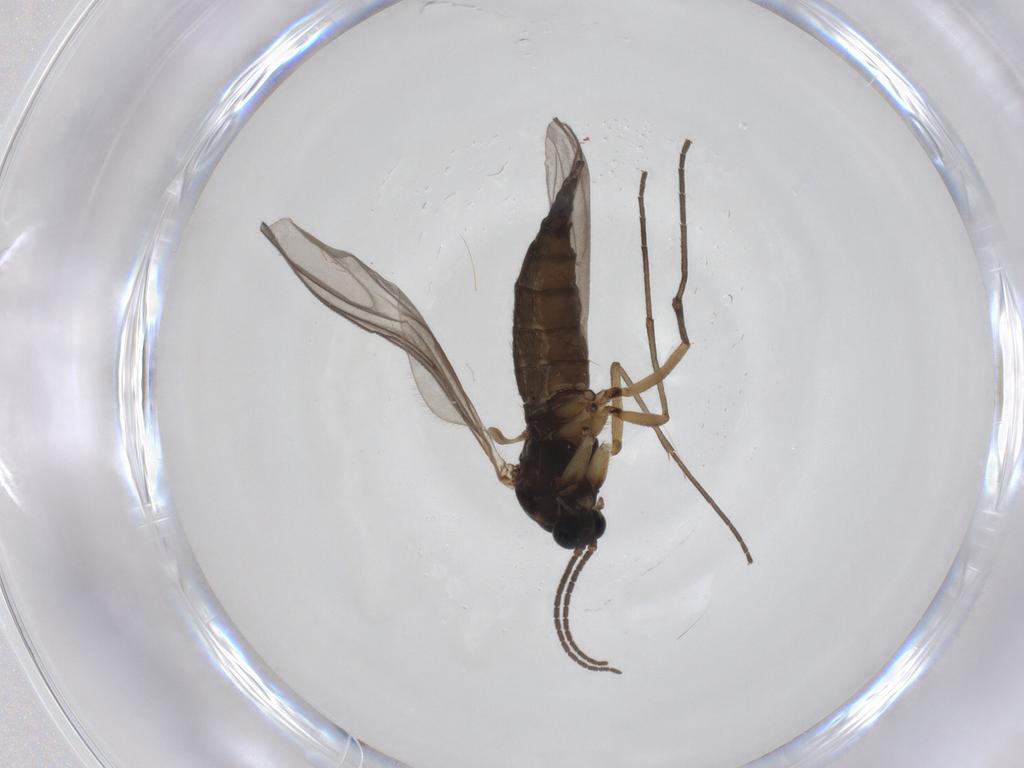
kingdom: Animalia
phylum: Arthropoda
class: Insecta
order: Diptera
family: Sciaridae
